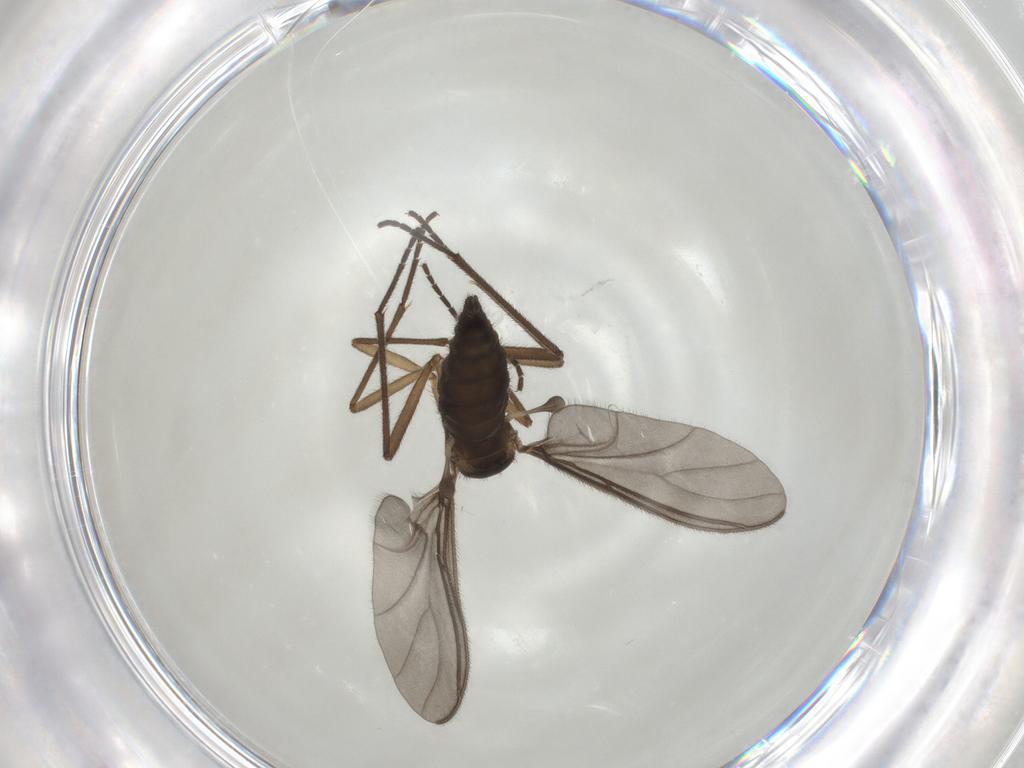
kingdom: Animalia
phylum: Arthropoda
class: Insecta
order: Diptera
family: Sciaridae
